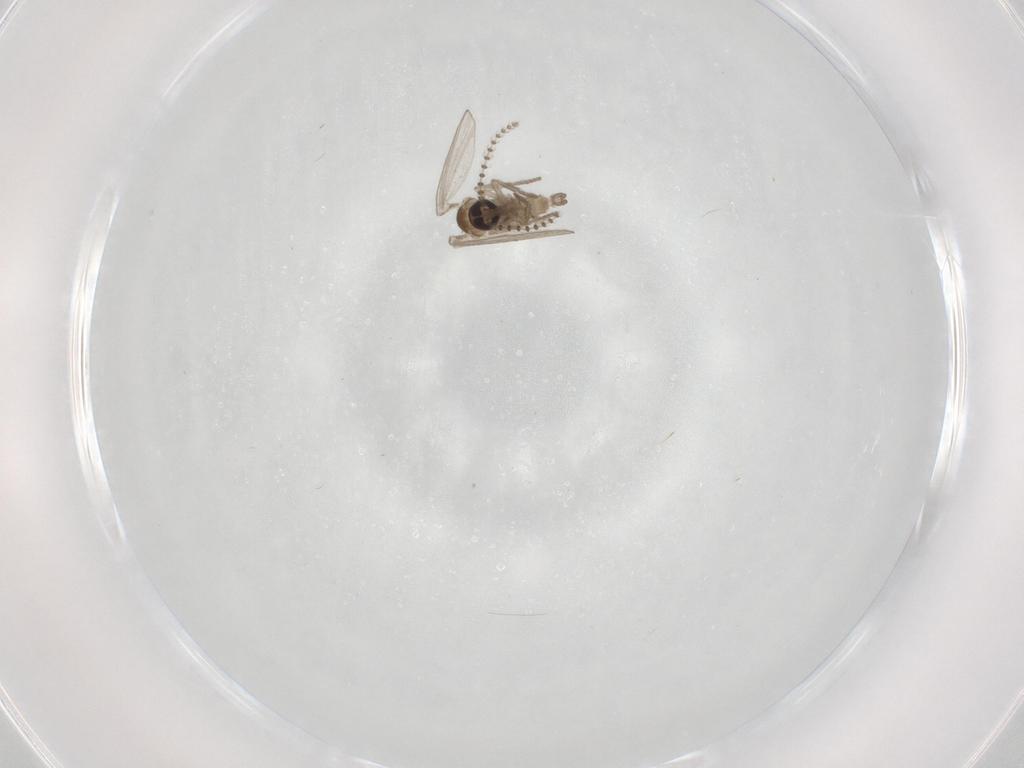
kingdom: Animalia
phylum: Arthropoda
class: Insecta
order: Diptera
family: Psychodidae
